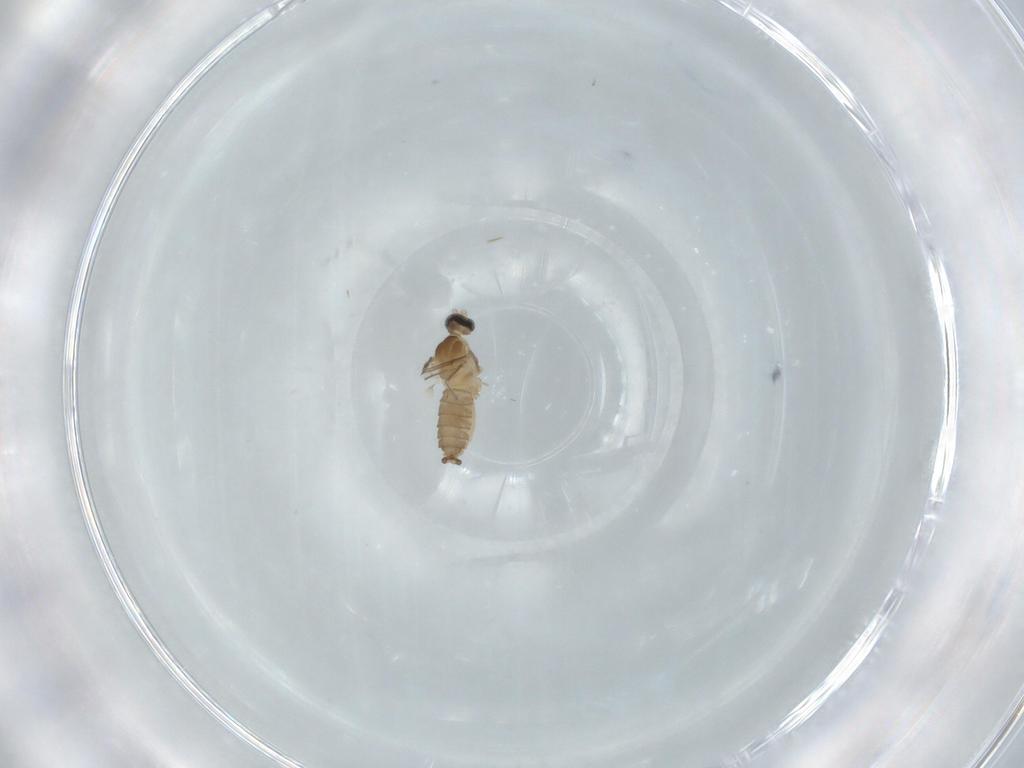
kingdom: Animalia
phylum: Arthropoda
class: Insecta
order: Diptera
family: Cecidomyiidae
